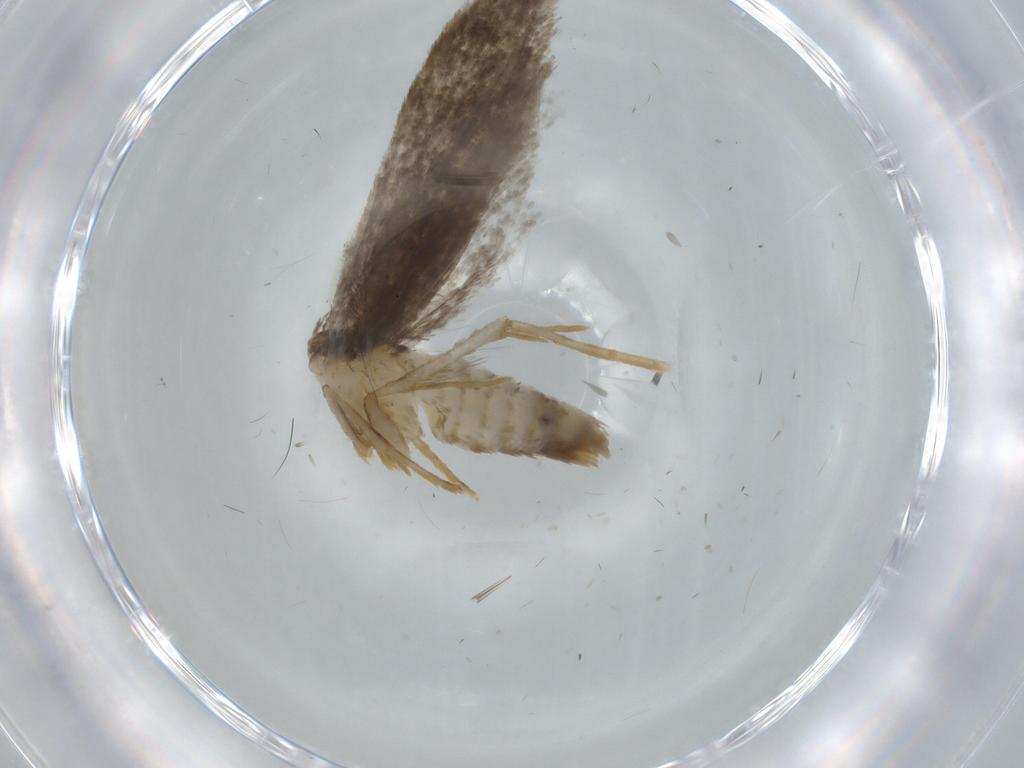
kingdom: Animalia
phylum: Arthropoda
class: Insecta
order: Lepidoptera
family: Tineidae
